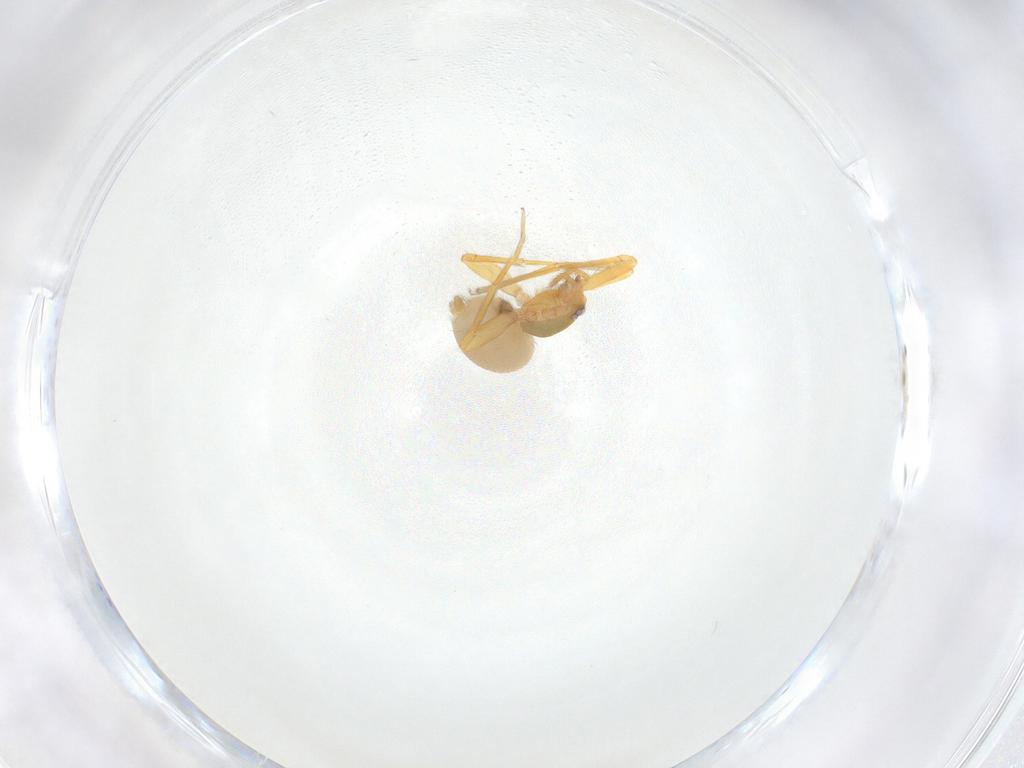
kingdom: Animalia
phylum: Arthropoda
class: Arachnida
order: Araneae
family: Oonopidae
